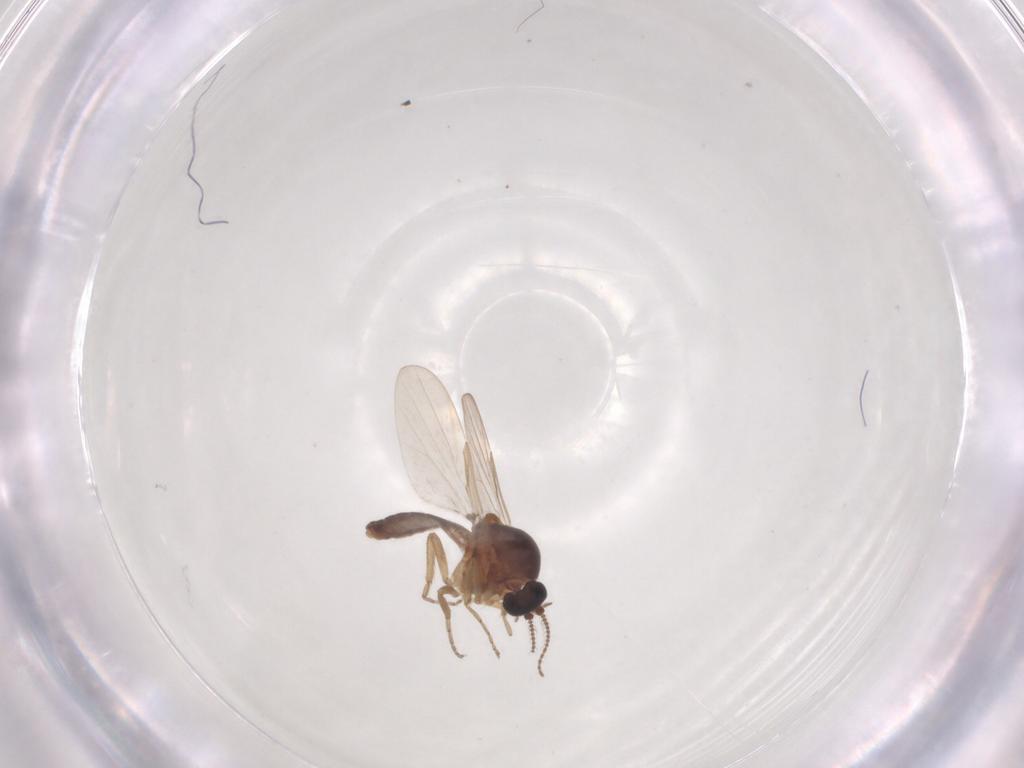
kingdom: Animalia
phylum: Arthropoda
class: Insecta
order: Diptera
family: Ceratopogonidae
